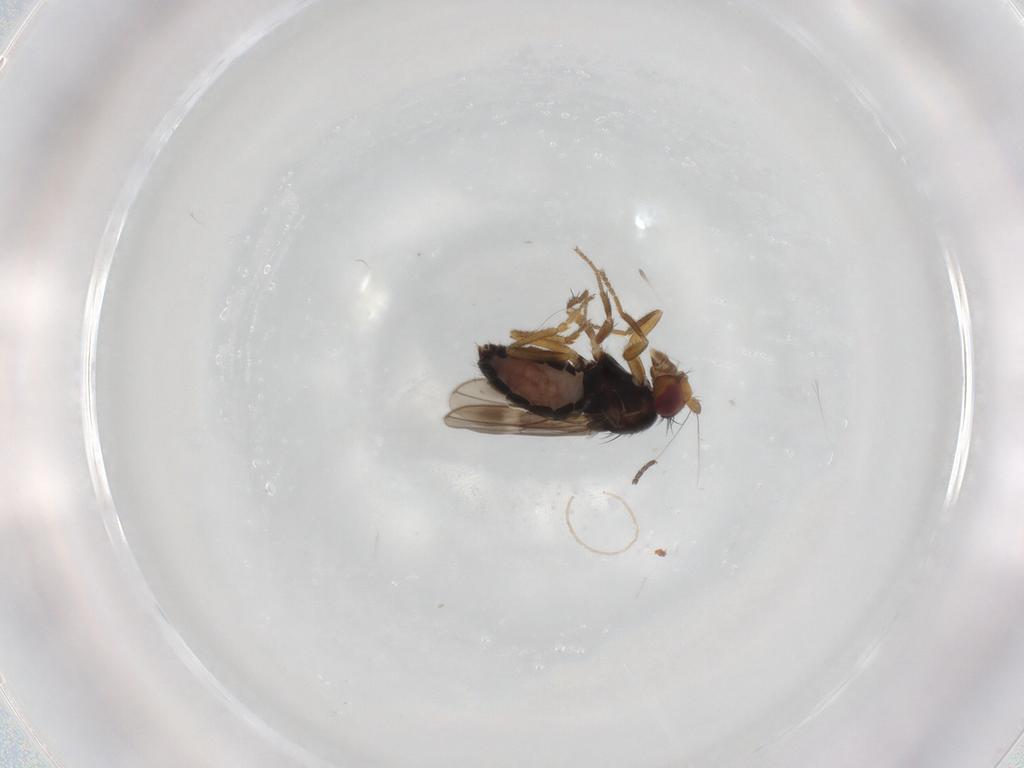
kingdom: Animalia
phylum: Arthropoda
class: Insecta
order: Diptera
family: Sphaeroceridae
